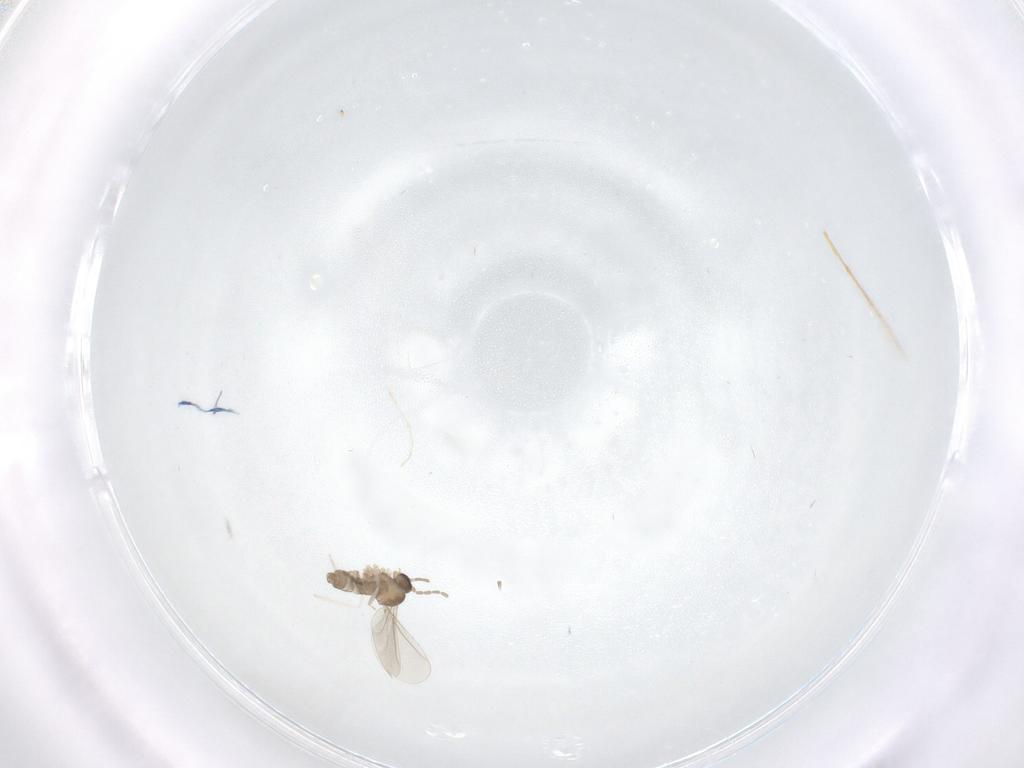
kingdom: Animalia
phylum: Arthropoda
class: Insecta
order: Diptera
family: Cecidomyiidae
